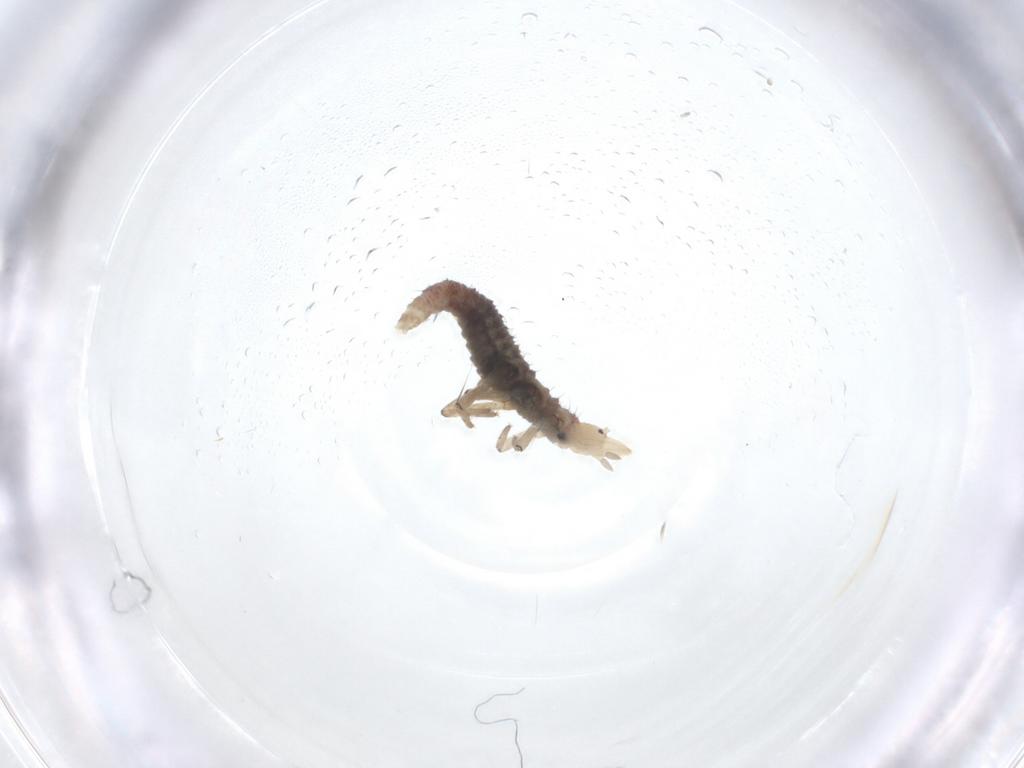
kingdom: Animalia
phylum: Arthropoda
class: Insecta
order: Neuroptera
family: Hemerobiidae
